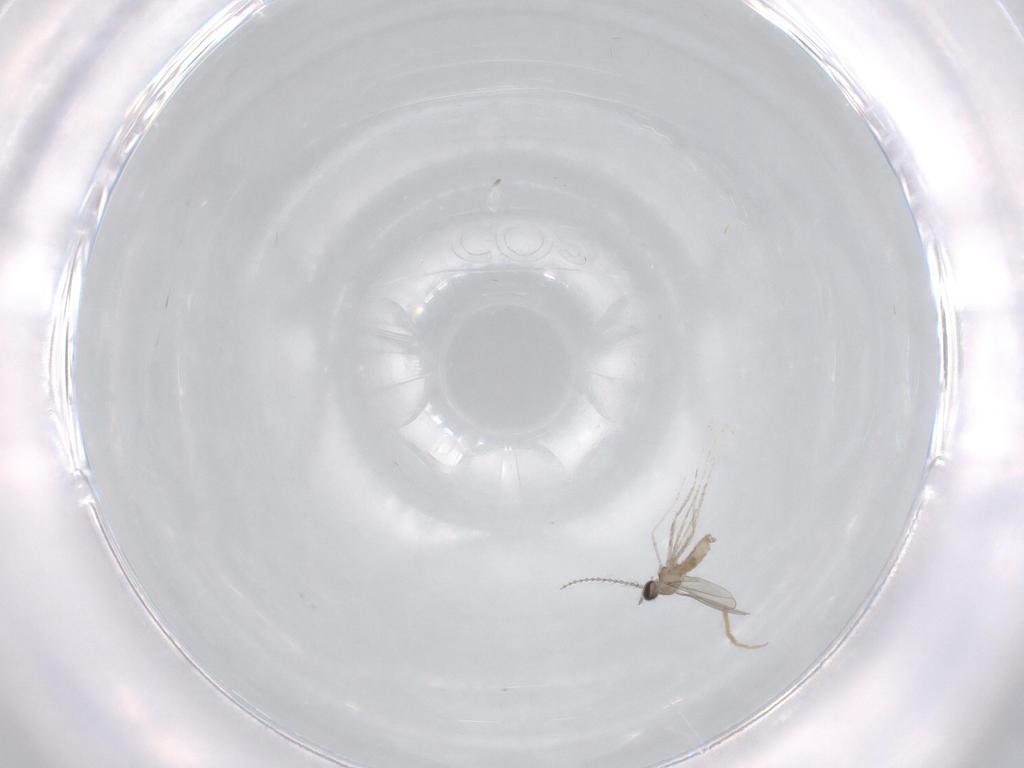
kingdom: Animalia
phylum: Arthropoda
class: Insecta
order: Diptera
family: Chironomidae
